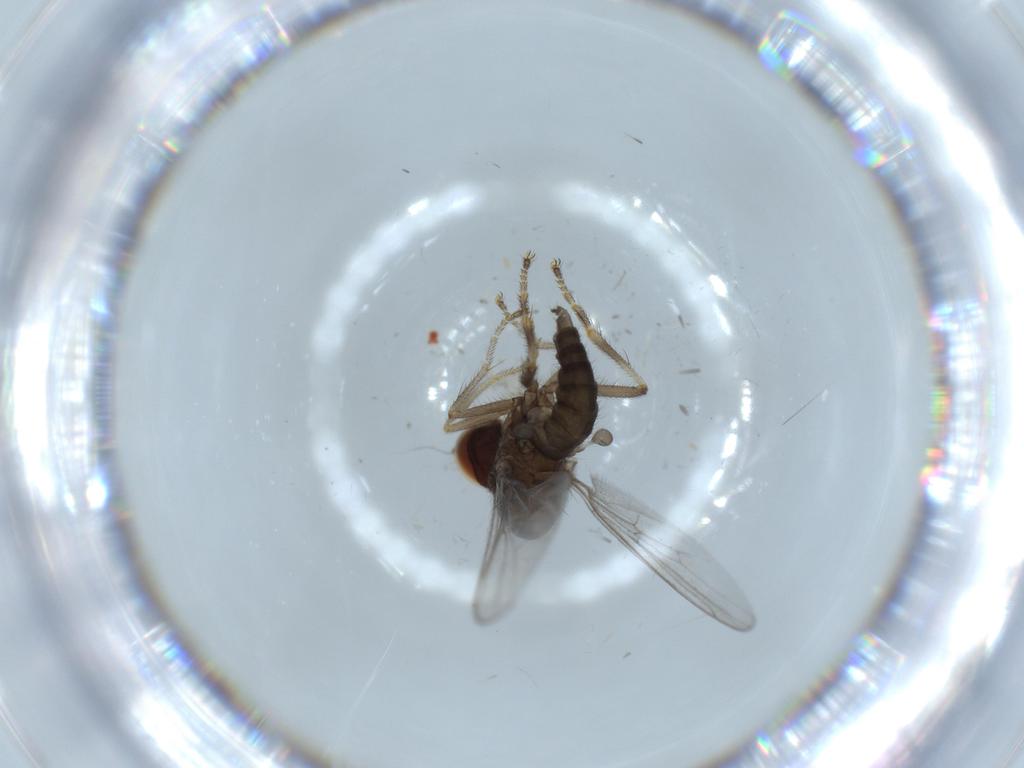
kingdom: Animalia
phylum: Arthropoda
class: Insecta
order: Diptera
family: Hybotidae
